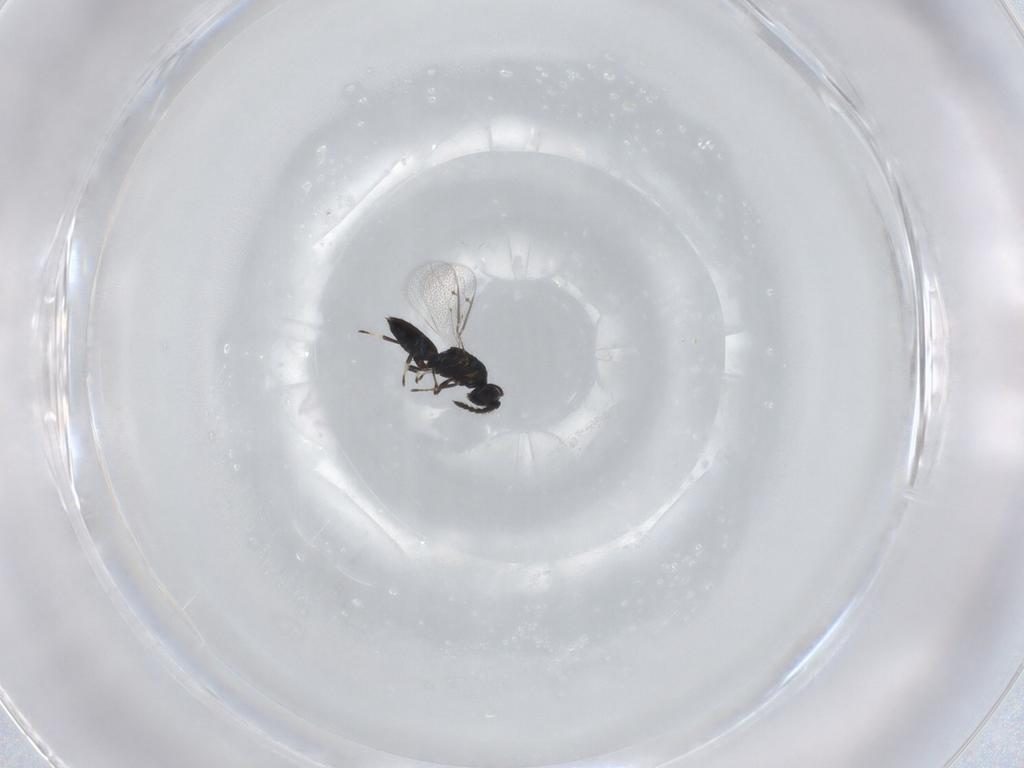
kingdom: Animalia
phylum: Arthropoda
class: Insecta
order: Hymenoptera
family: Eulophidae
